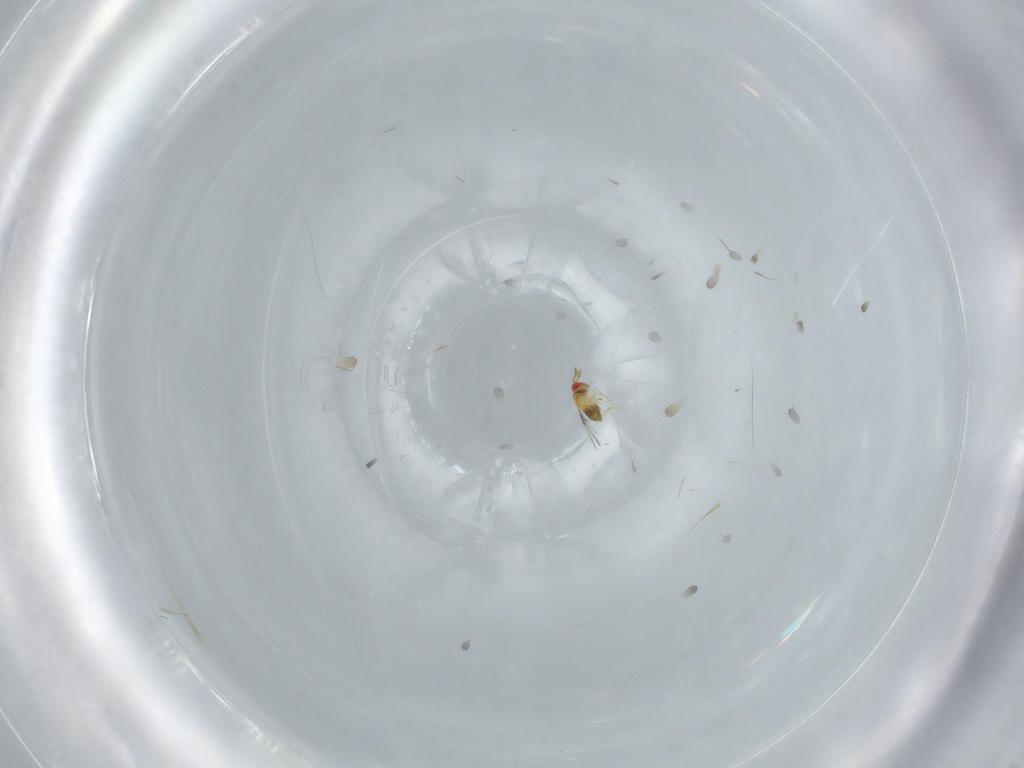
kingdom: Animalia
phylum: Arthropoda
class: Insecta
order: Hymenoptera
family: Trichogrammatidae
